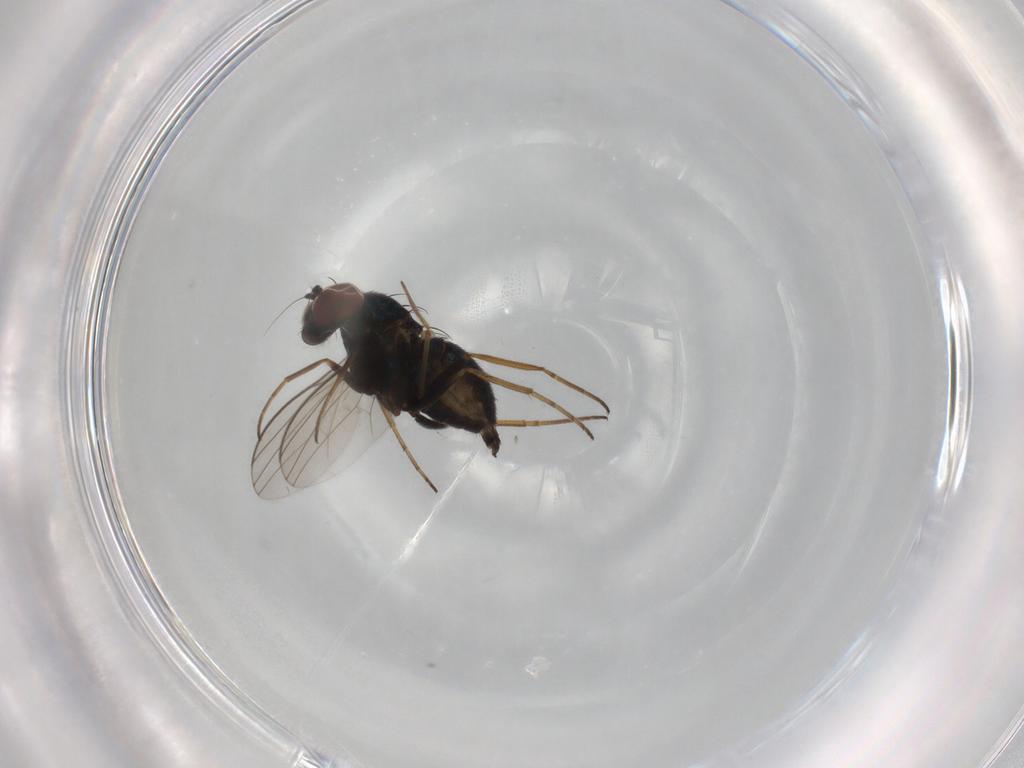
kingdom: Animalia
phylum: Arthropoda
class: Insecta
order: Diptera
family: Dolichopodidae
